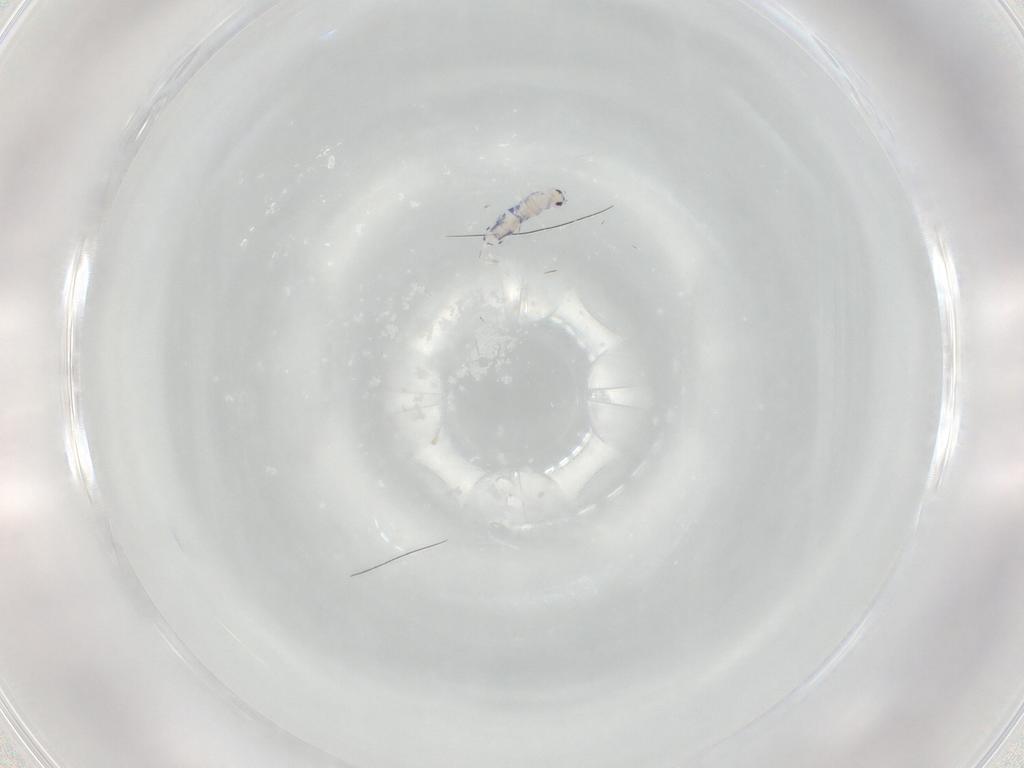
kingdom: Animalia
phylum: Arthropoda
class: Collembola
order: Entomobryomorpha
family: Entomobryidae
